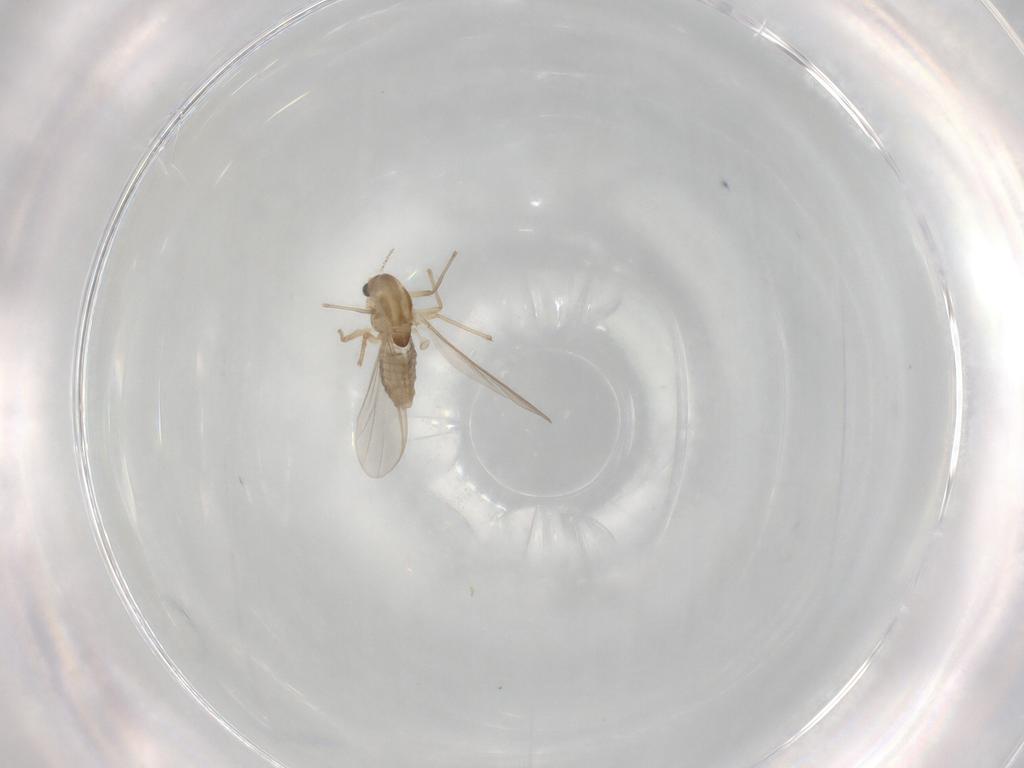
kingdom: Animalia
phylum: Arthropoda
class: Insecta
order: Diptera
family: Chironomidae
